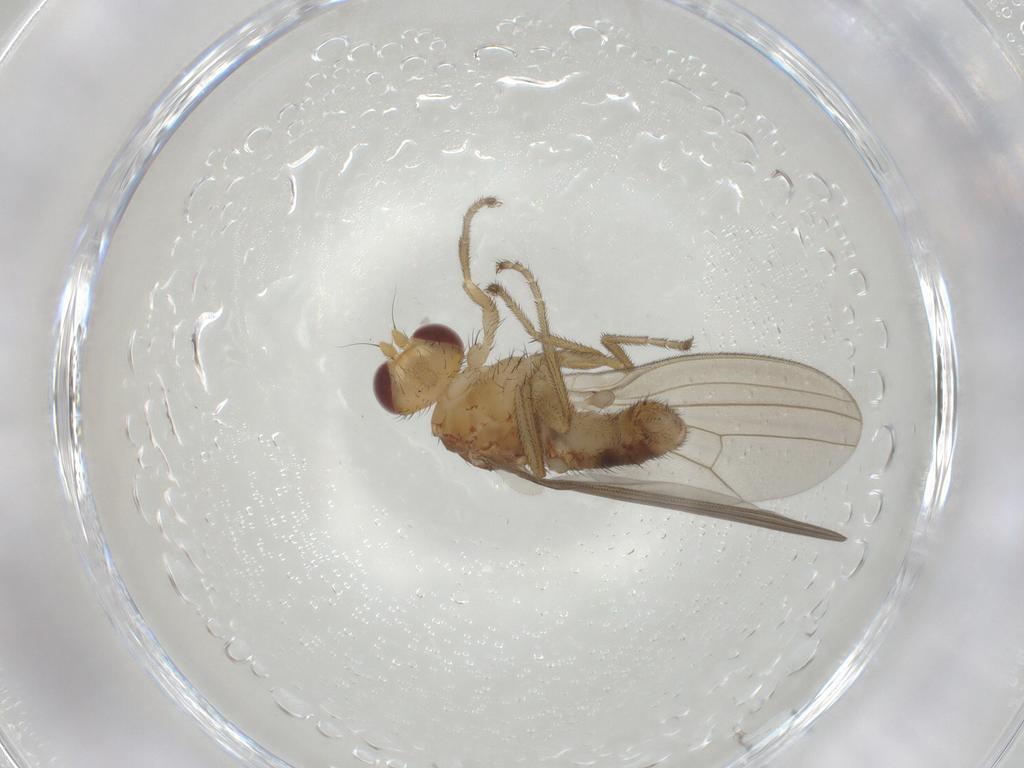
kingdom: Animalia
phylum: Arthropoda
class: Insecta
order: Diptera
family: Natalimyzidae
